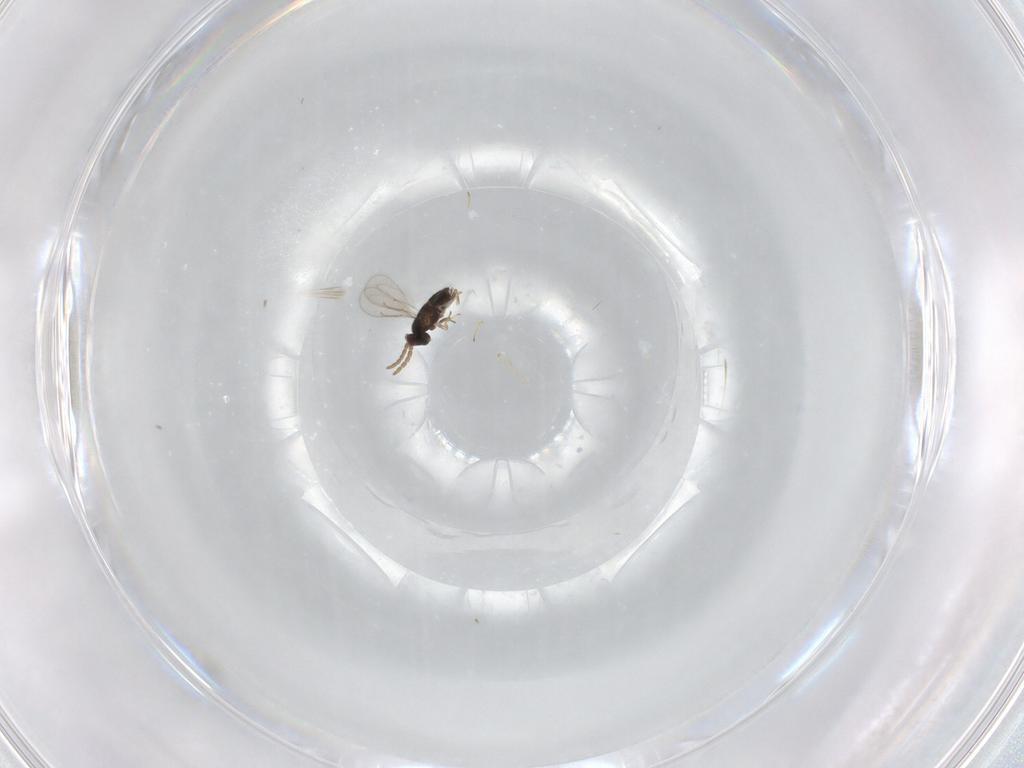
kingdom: Animalia
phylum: Arthropoda
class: Insecta
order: Hymenoptera
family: Aphelinidae
